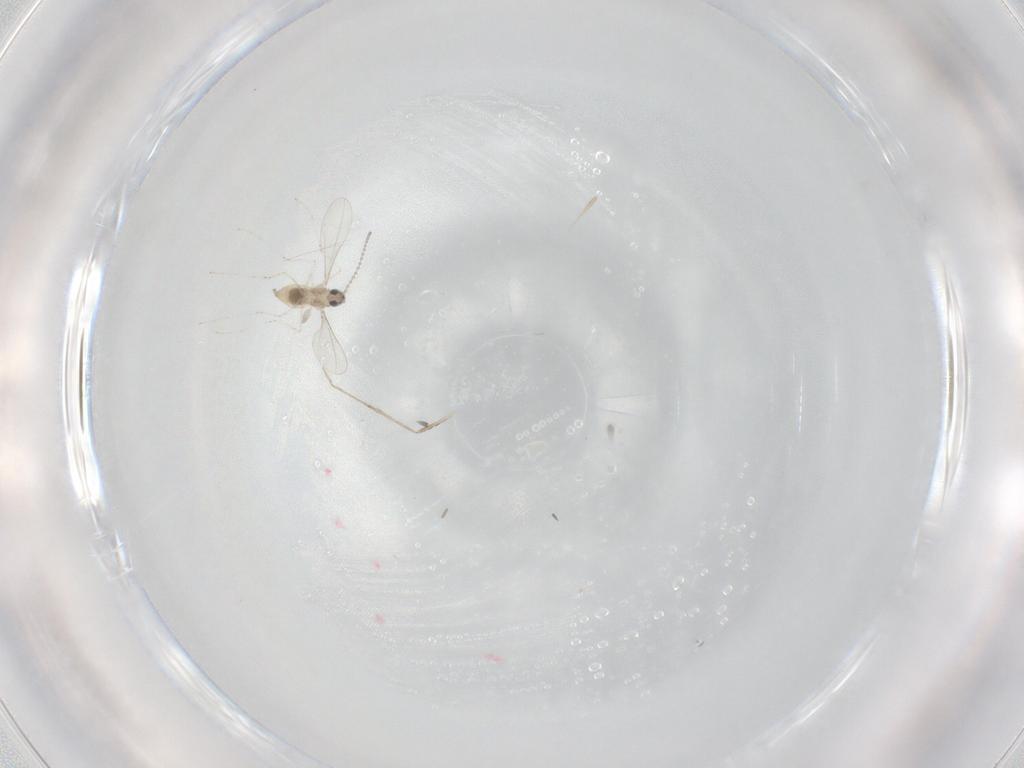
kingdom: Animalia
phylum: Arthropoda
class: Insecta
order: Diptera
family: Cecidomyiidae
